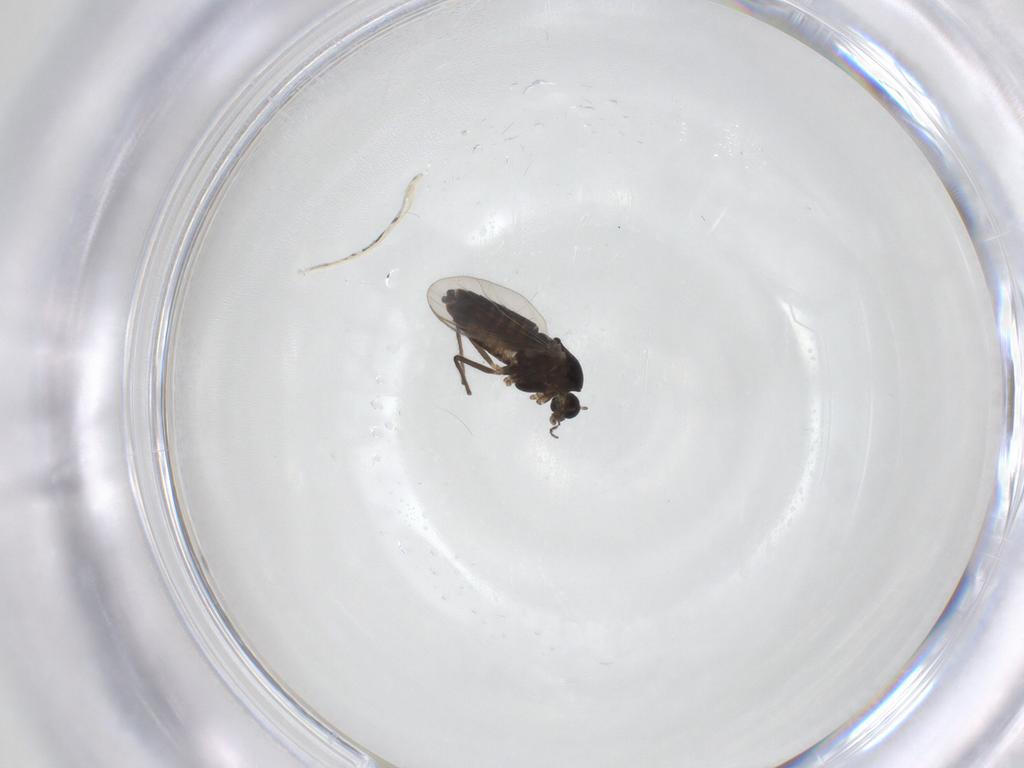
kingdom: Animalia
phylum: Arthropoda
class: Insecta
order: Diptera
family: Chironomidae
